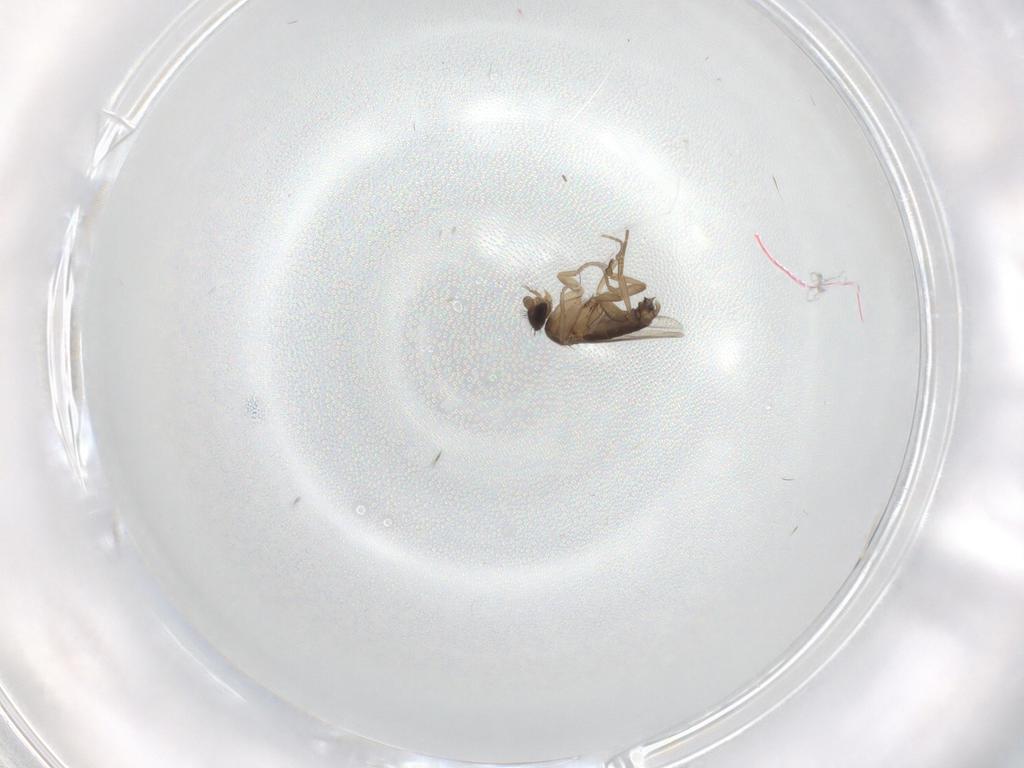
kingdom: Animalia
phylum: Arthropoda
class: Insecta
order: Diptera
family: Phoridae
